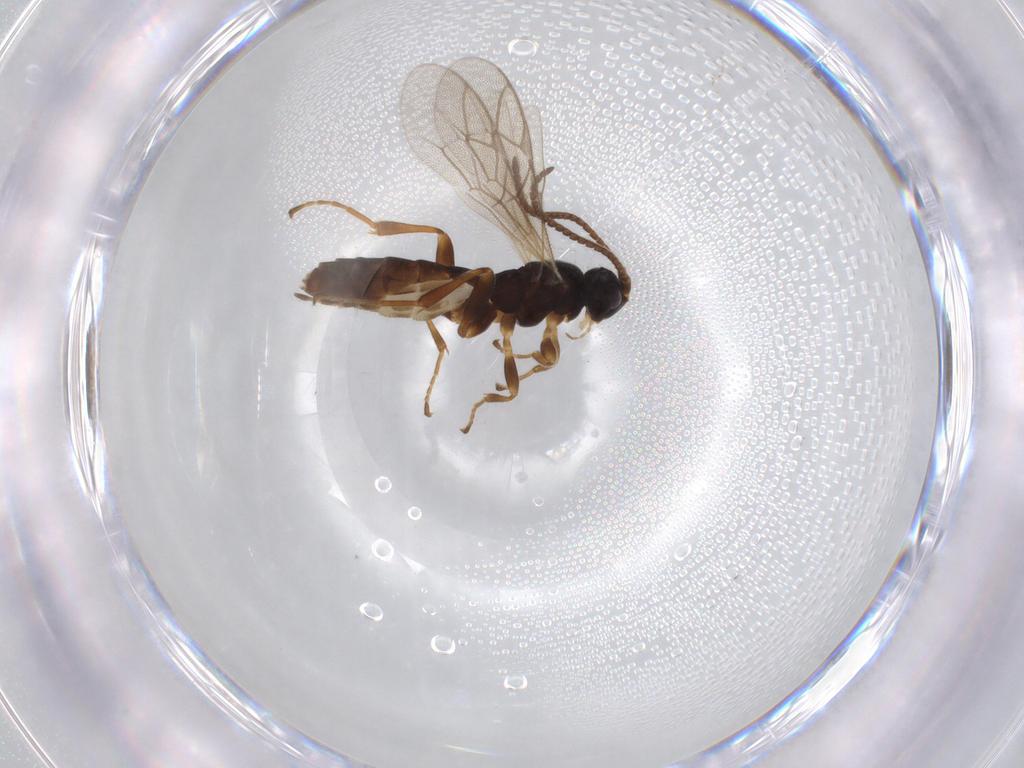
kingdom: Animalia
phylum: Arthropoda
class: Insecta
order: Hymenoptera
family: Ichneumonidae
